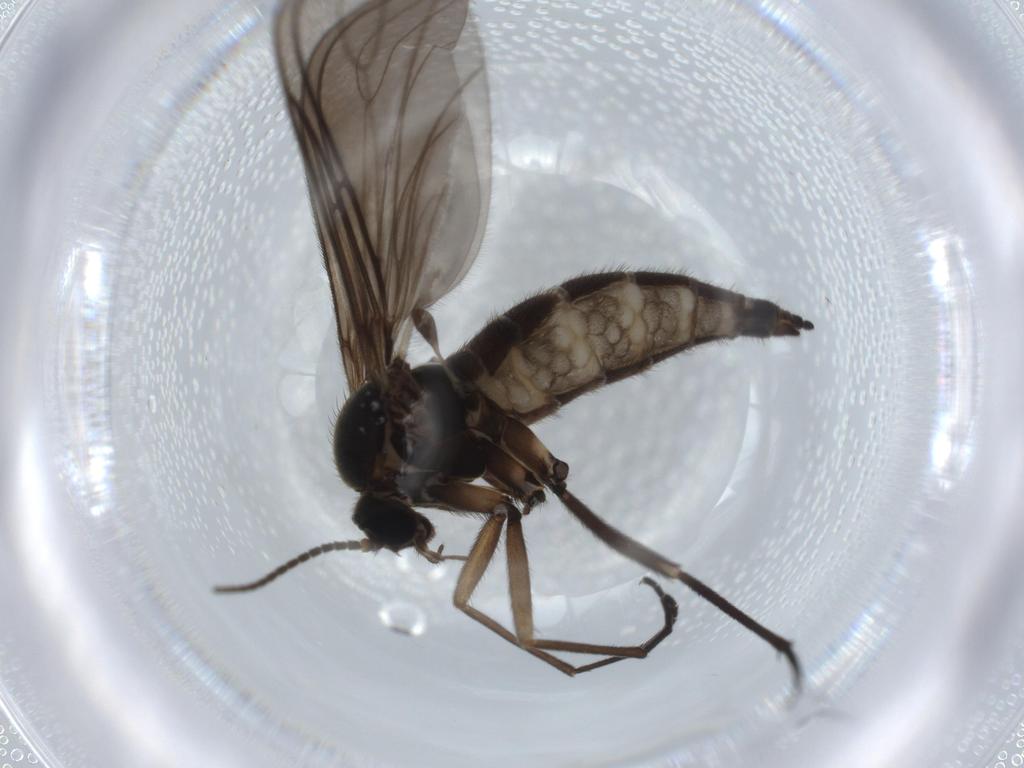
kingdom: Animalia
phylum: Arthropoda
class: Insecta
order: Diptera
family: Sciaridae
